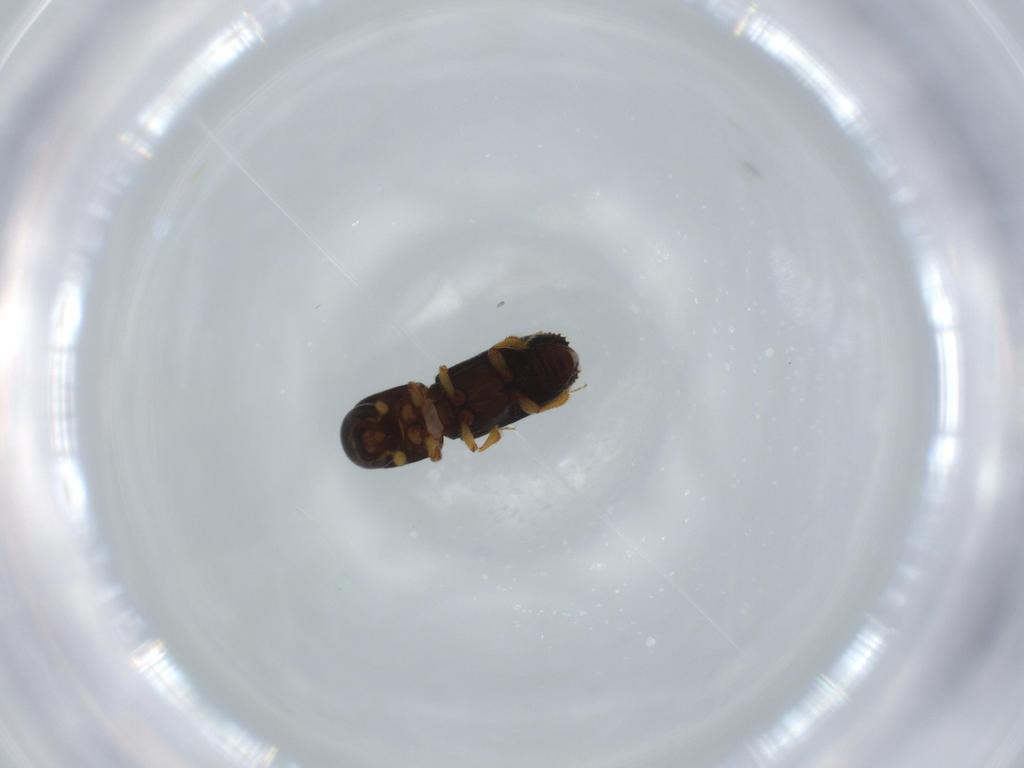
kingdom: Animalia
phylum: Arthropoda
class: Insecta
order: Coleoptera
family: Curculionidae
